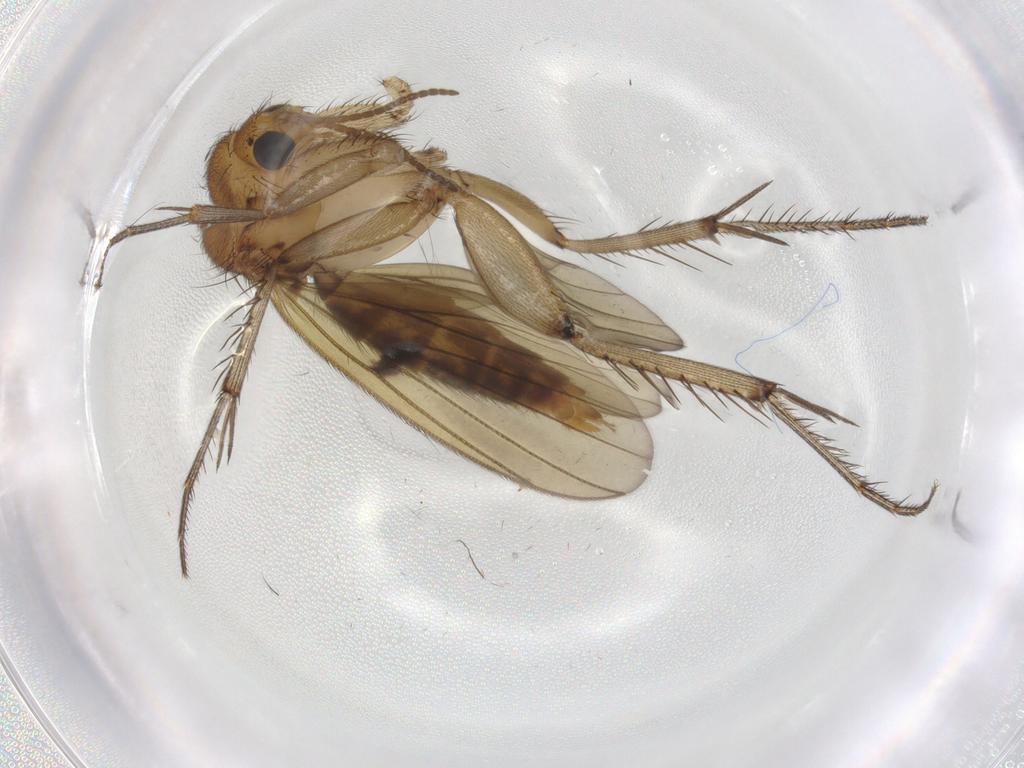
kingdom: Animalia
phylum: Arthropoda
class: Insecta
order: Diptera
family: Mycetophilidae
